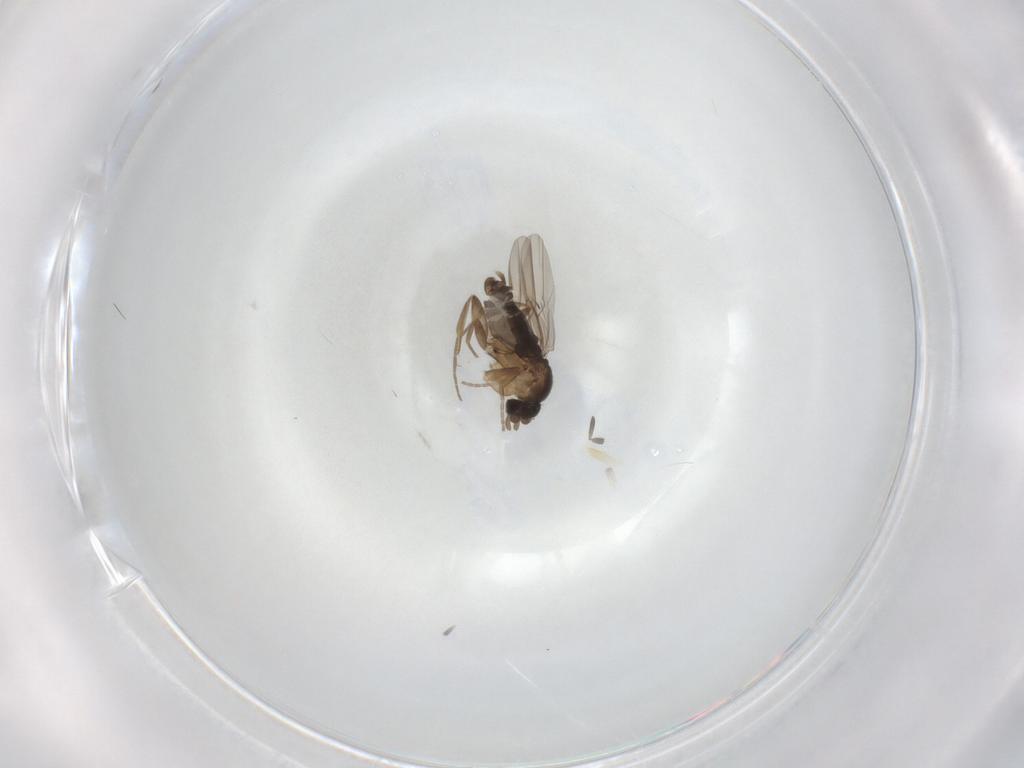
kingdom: Animalia
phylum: Arthropoda
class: Insecta
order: Diptera
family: Phoridae
